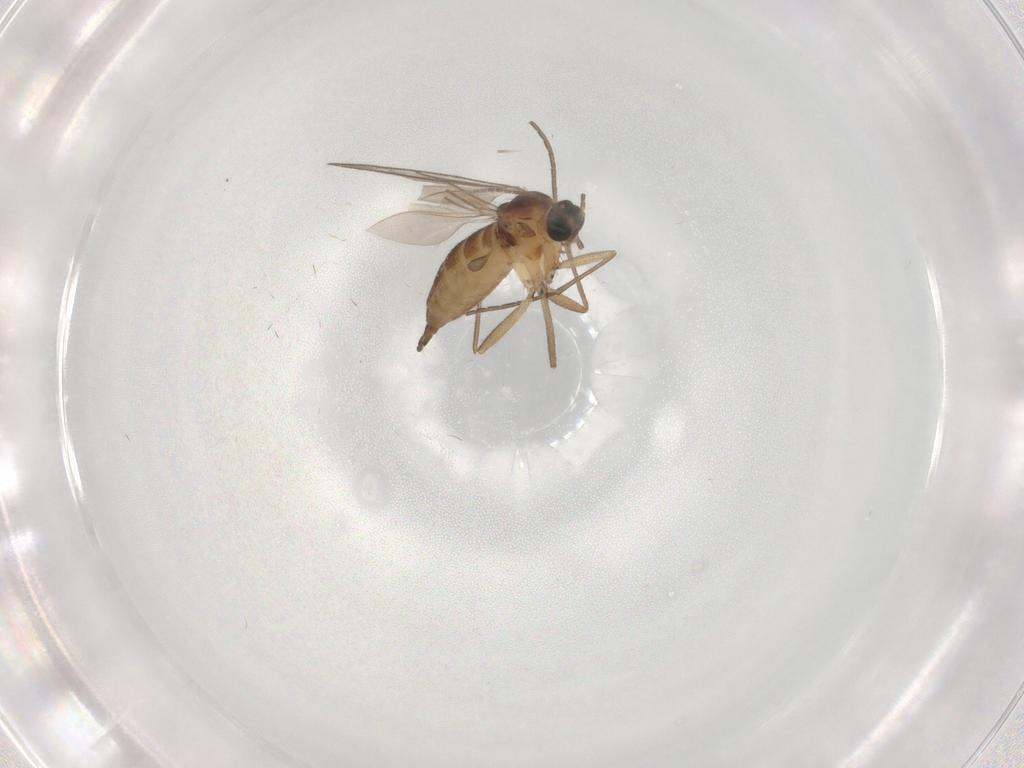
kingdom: Animalia
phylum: Arthropoda
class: Insecta
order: Diptera
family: Sciaridae
